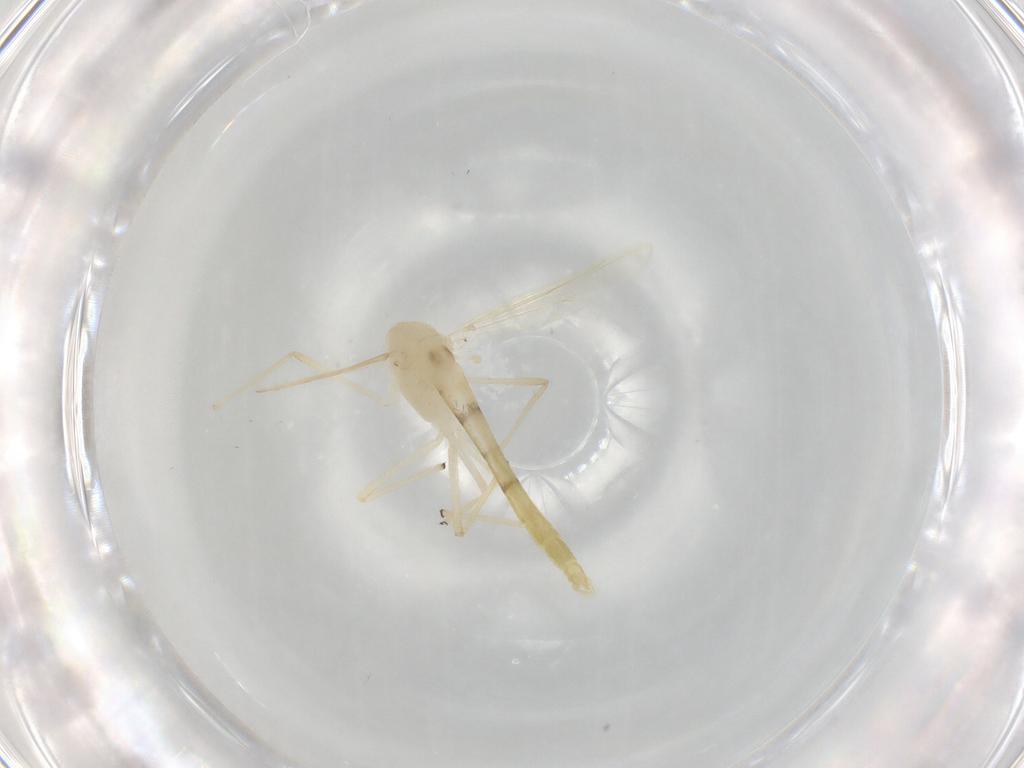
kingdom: Animalia
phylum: Arthropoda
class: Insecta
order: Diptera
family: Chironomidae
